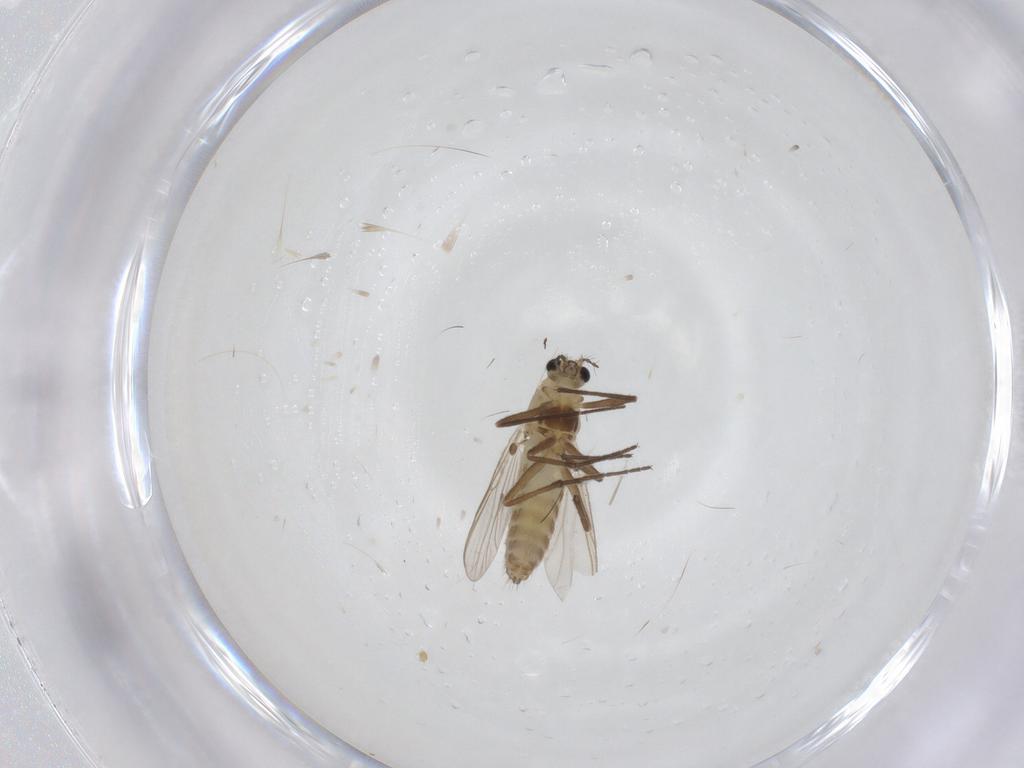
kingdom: Animalia
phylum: Arthropoda
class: Insecta
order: Diptera
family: Chironomidae
